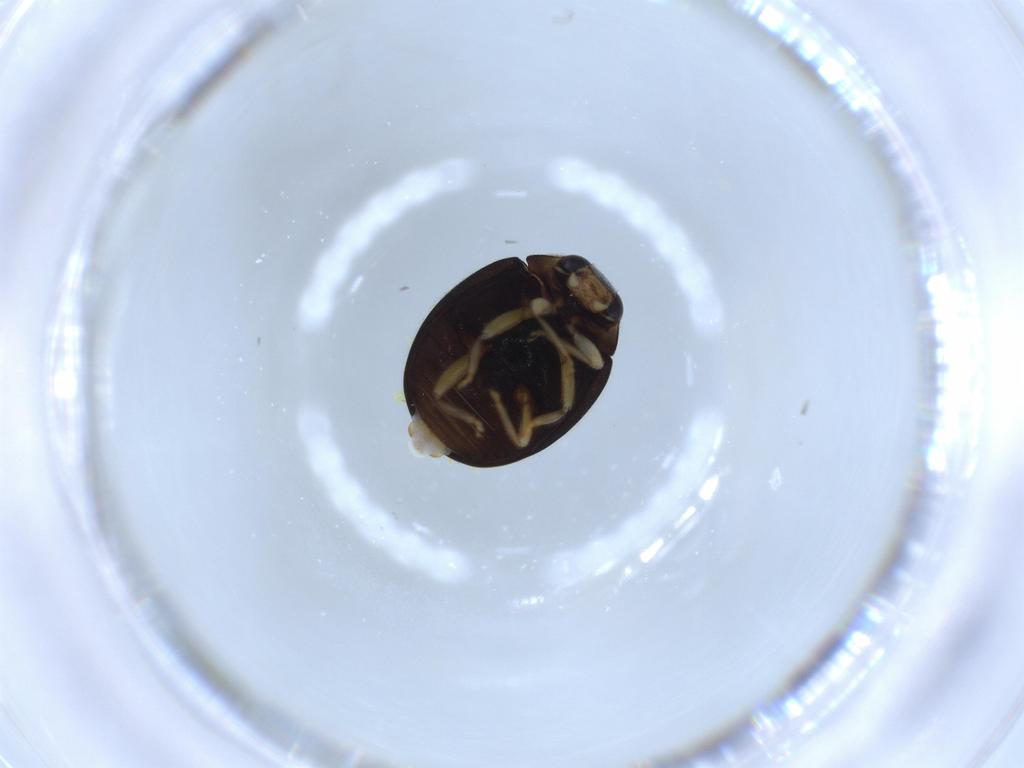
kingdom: Animalia
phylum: Arthropoda
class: Insecta
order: Coleoptera
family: Coccinellidae
